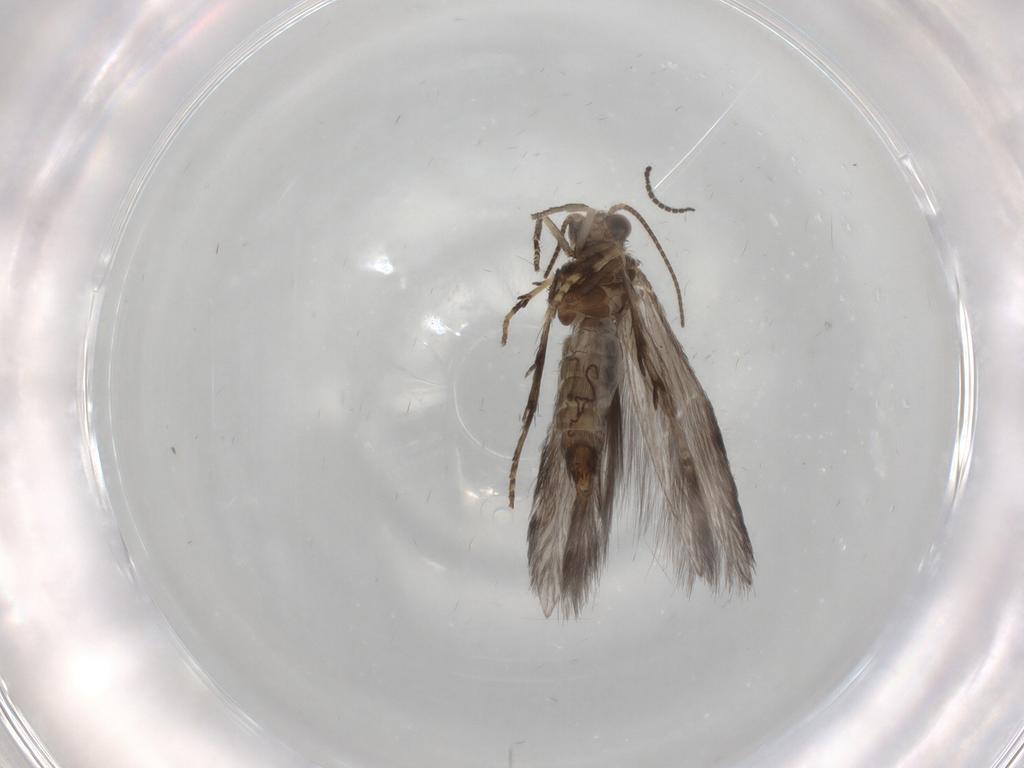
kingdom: Animalia
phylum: Arthropoda
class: Insecta
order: Trichoptera
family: Hydroptilidae
